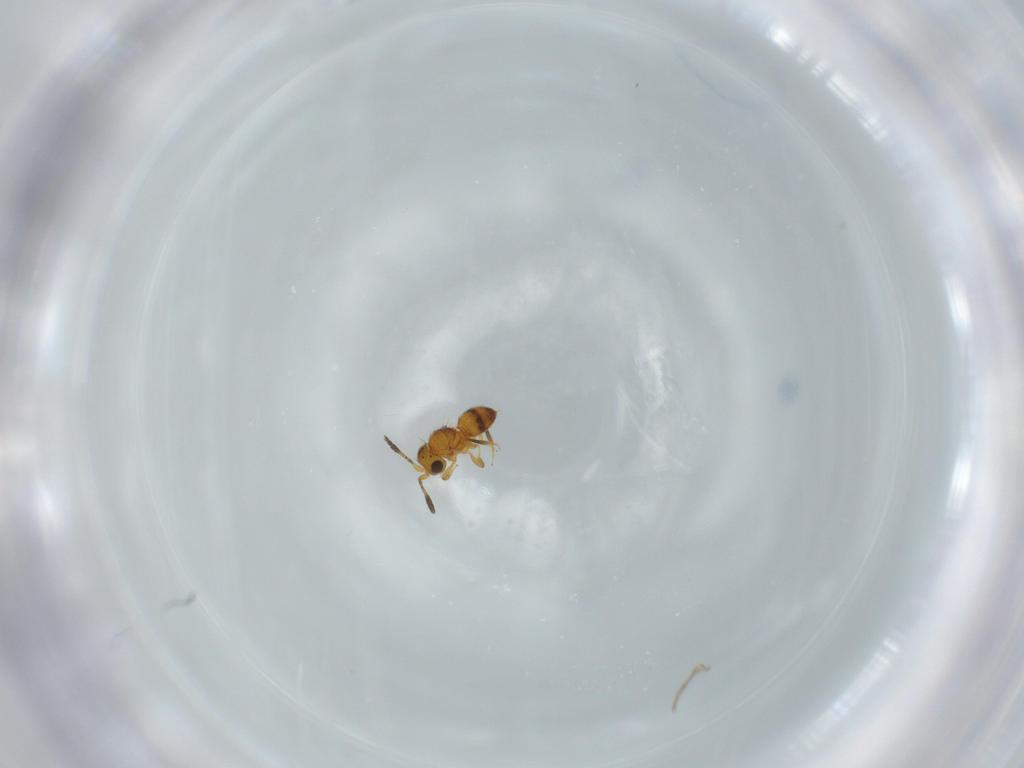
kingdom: Animalia
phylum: Arthropoda
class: Insecta
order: Hymenoptera
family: Scelionidae
